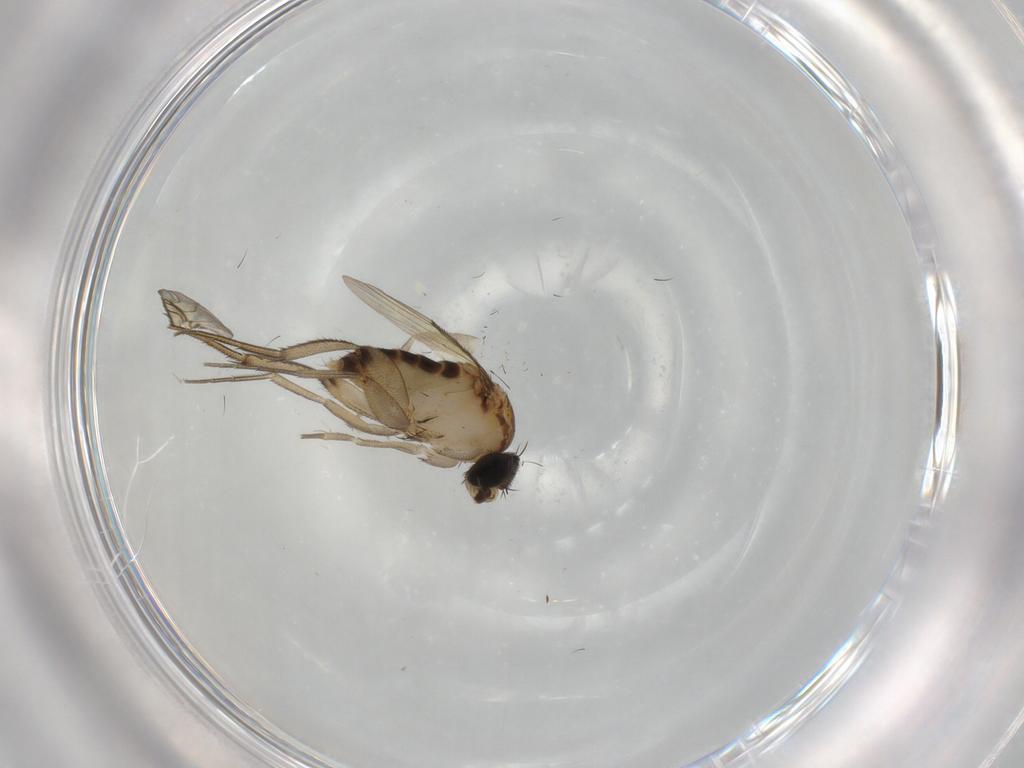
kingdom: Animalia
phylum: Arthropoda
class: Insecta
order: Diptera
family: Phoridae
